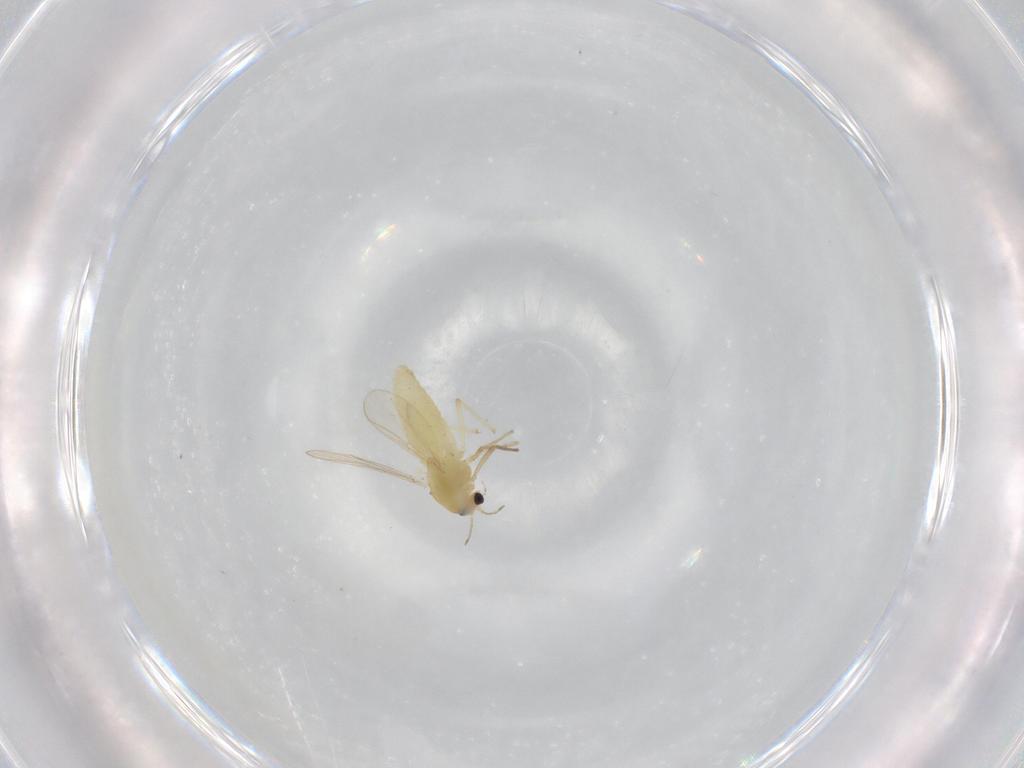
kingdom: Animalia
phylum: Arthropoda
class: Insecta
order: Diptera
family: Chironomidae
